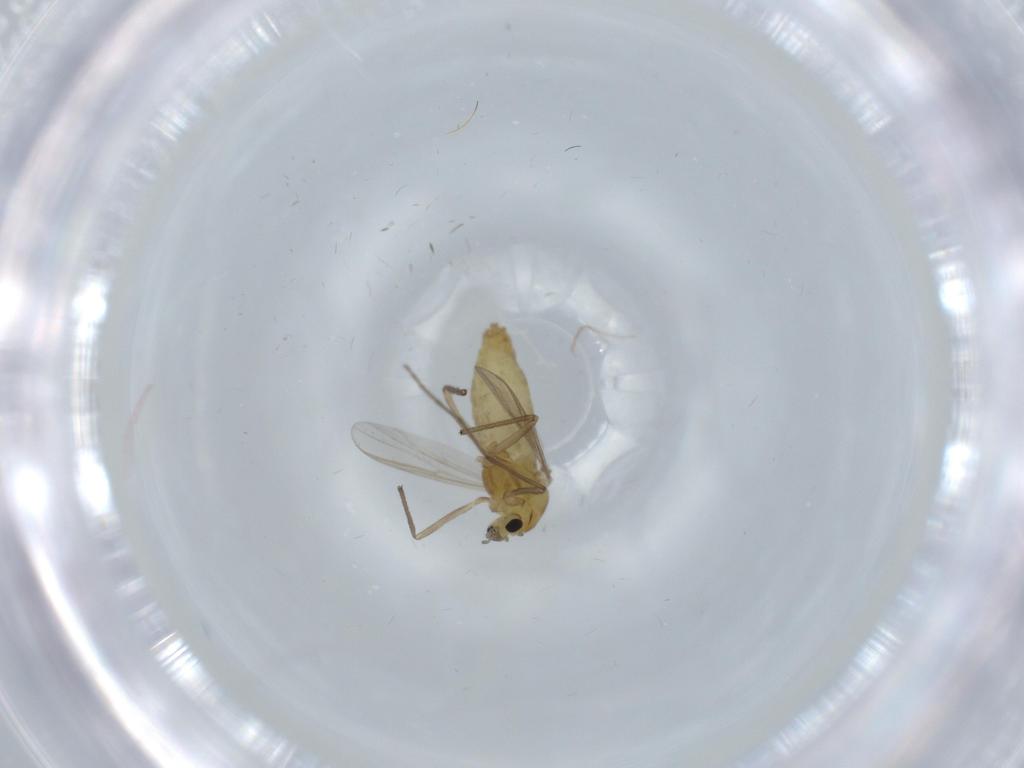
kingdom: Animalia
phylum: Arthropoda
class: Insecta
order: Diptera
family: Chironomidae
